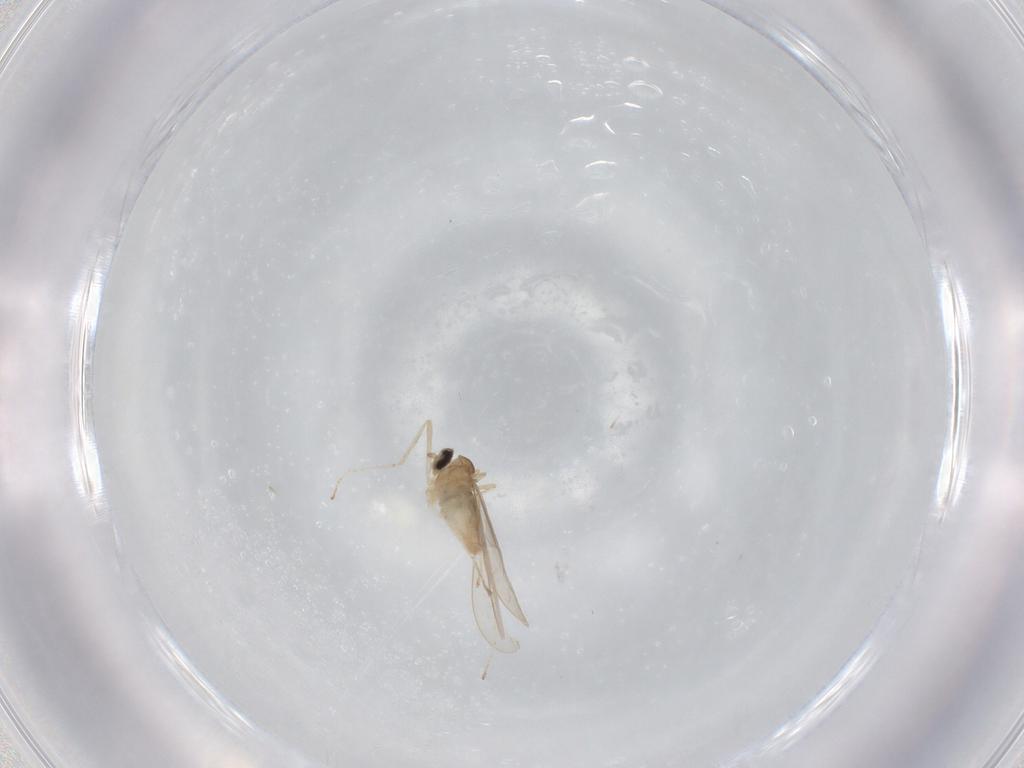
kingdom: Animalia
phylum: Arthropoda
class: Insecta
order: Diptera
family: Cecidomyiidae
